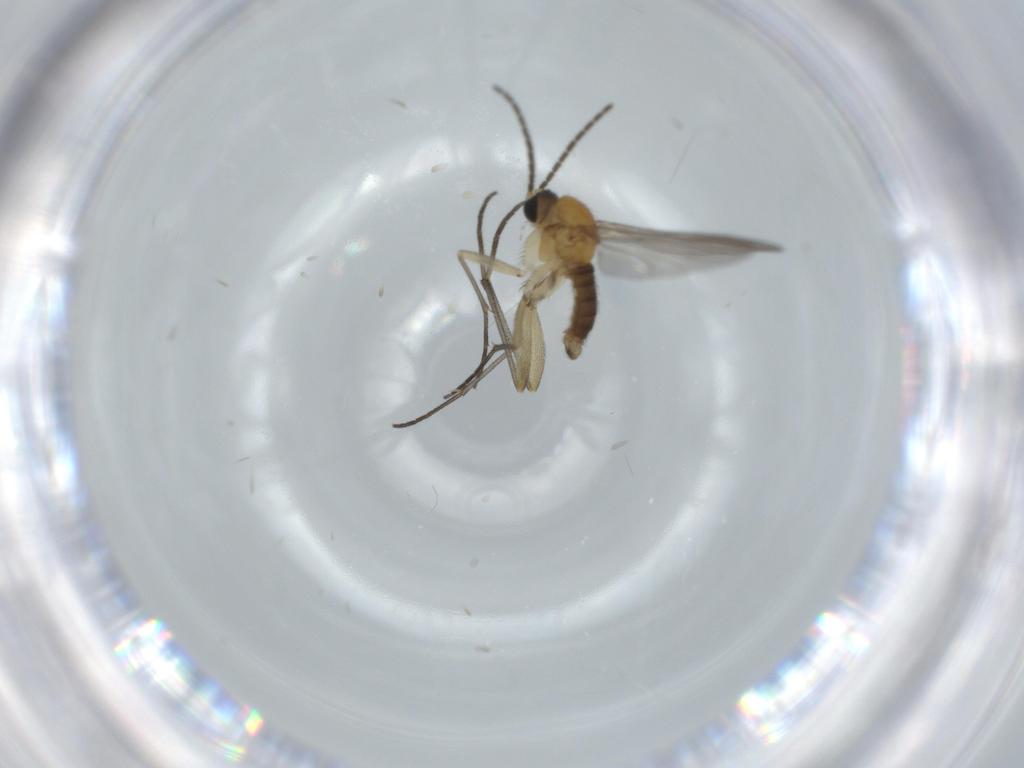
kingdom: Animalia
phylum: Arthropoda
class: Insecta
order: Diptera
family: Sciaridae
